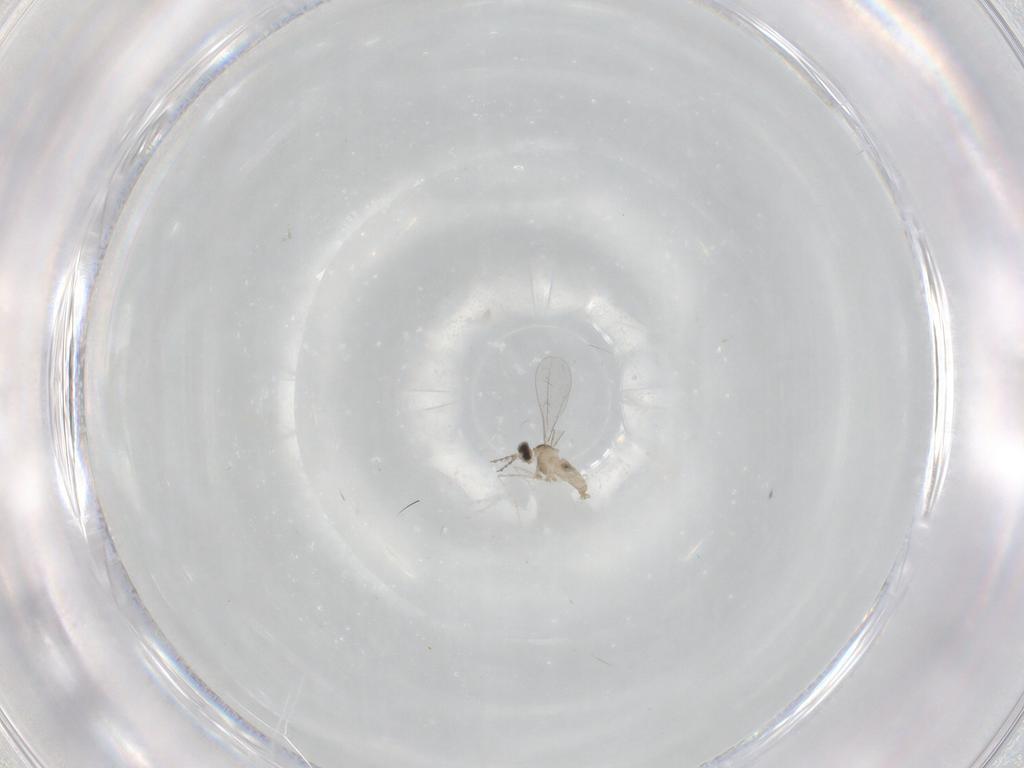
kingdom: Animalia
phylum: Arthropoda
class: Insecta
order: Diptera
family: Cecidomyiidae
